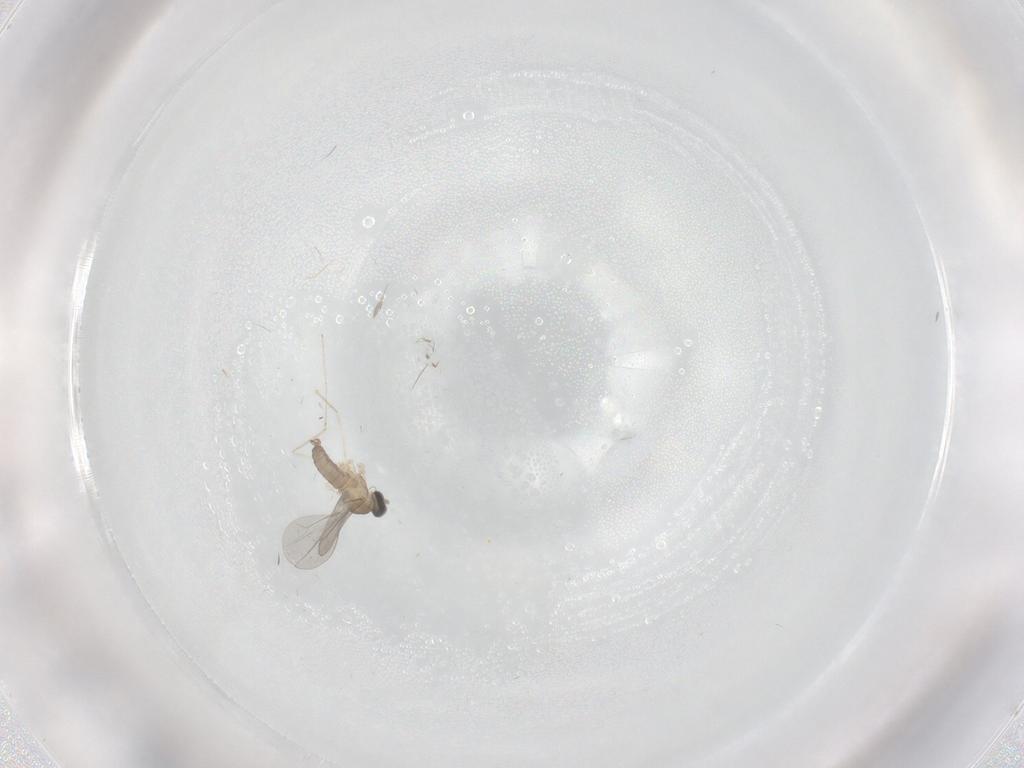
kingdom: Animalia
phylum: Arthropoda
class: Insecta
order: Diptera
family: Cecidomyiidae
